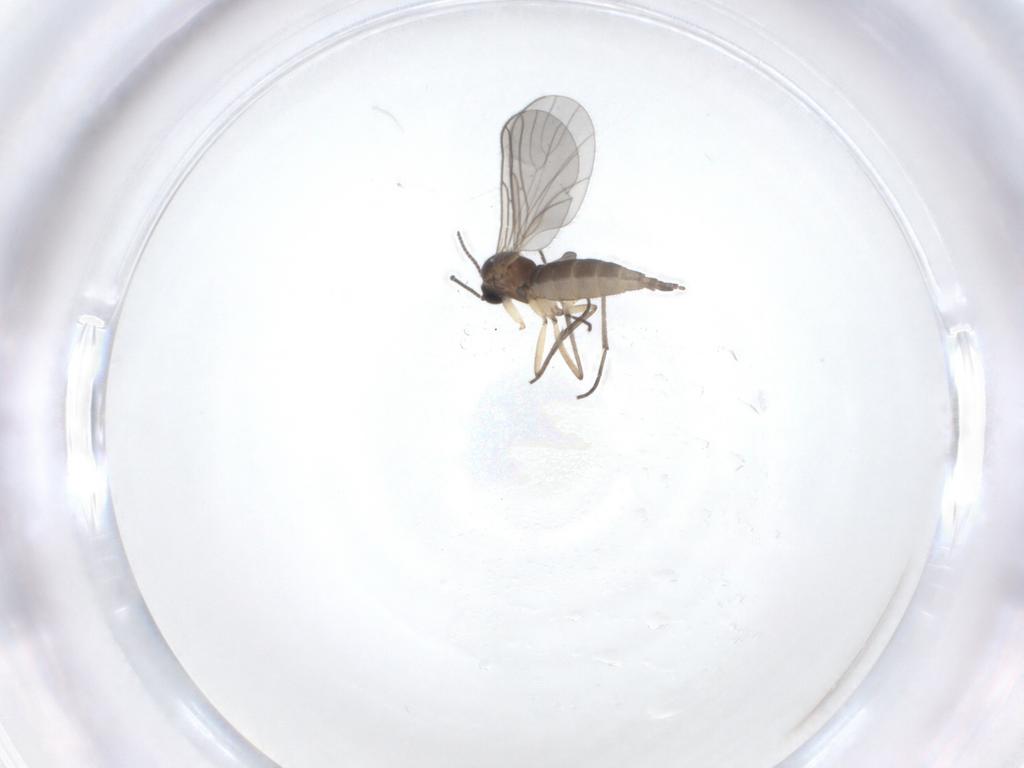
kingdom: Animalia
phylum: Arthropoda
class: Insecta
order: Diptera
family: Sciaridae
